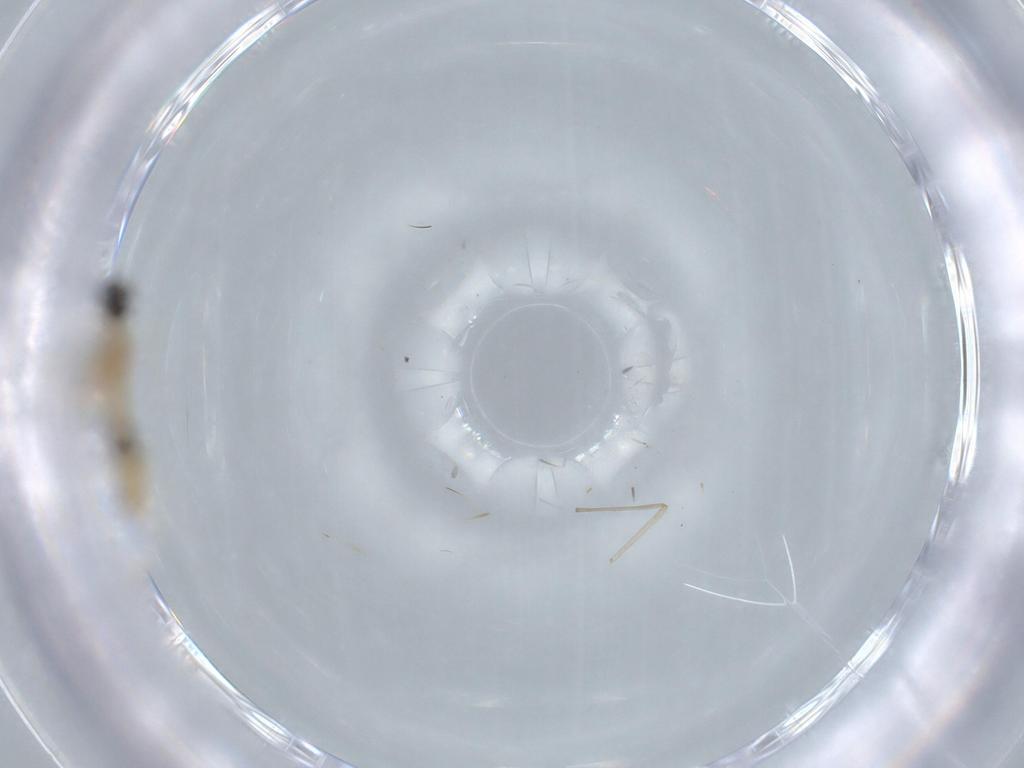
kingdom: Animalia
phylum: Arthropoda
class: Insecta
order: Diptera
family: Cecidomyiidae
